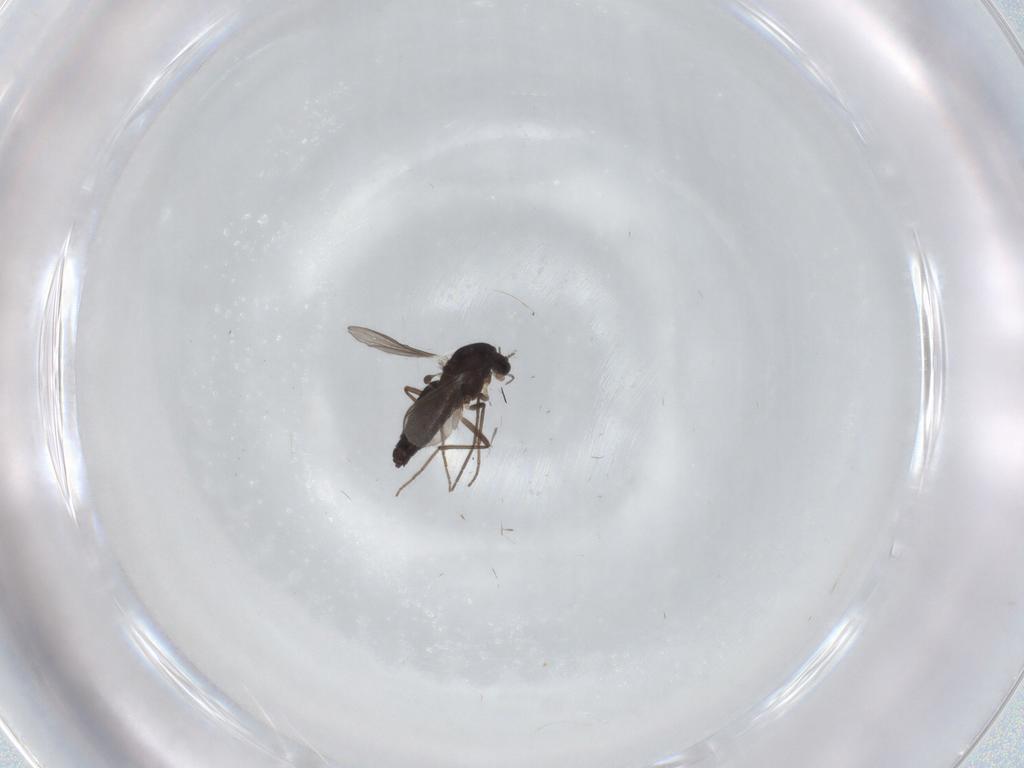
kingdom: Animalia
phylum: Arthropoda
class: Insecta
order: Diptera
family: Chironomidae
